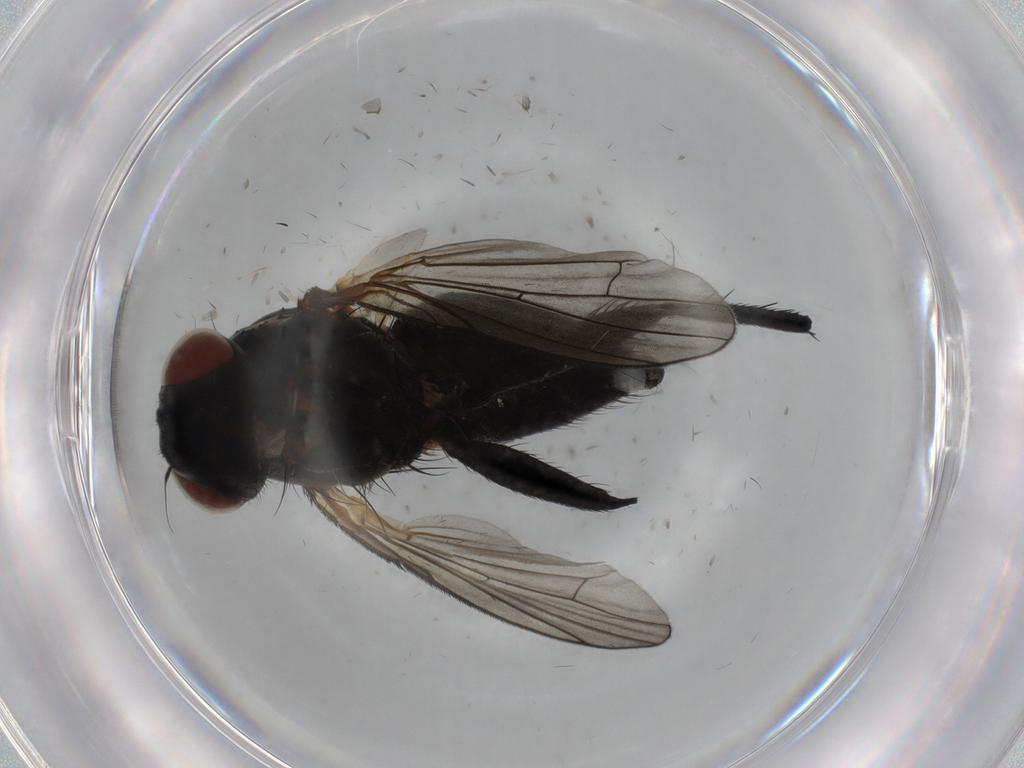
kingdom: Animalia
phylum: Arthropoda
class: Insecta
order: Diptera
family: Anthomyiidae
